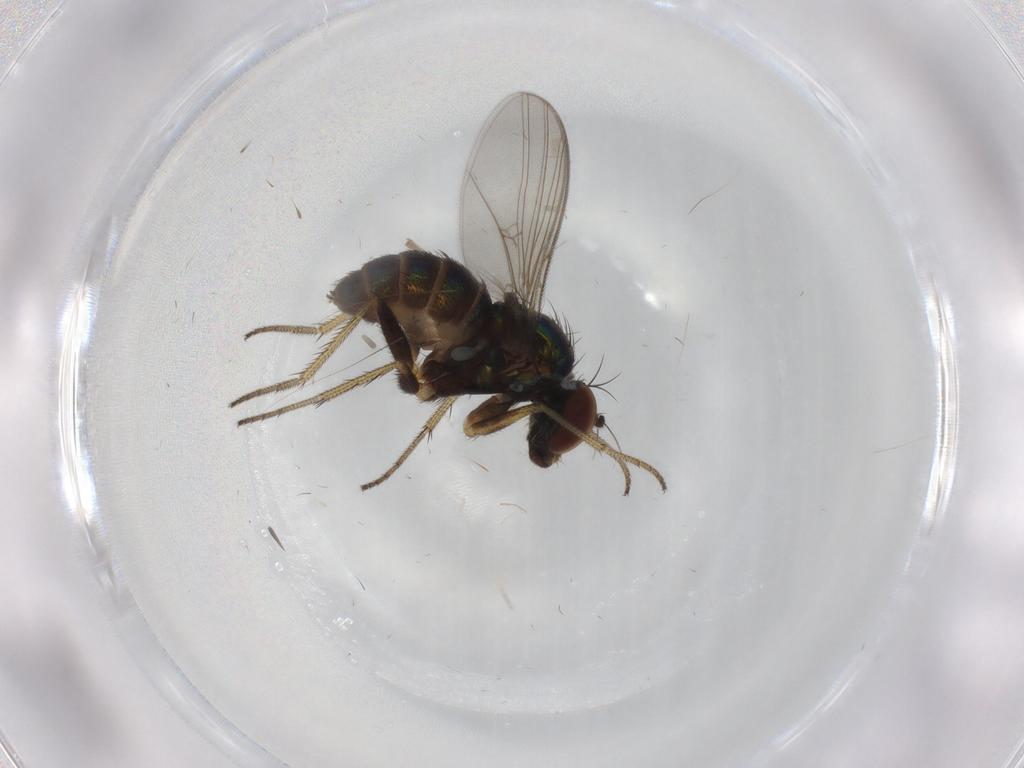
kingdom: Animalia
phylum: Arthropoda
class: Insecta
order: Diptera
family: Dolichopodidae
